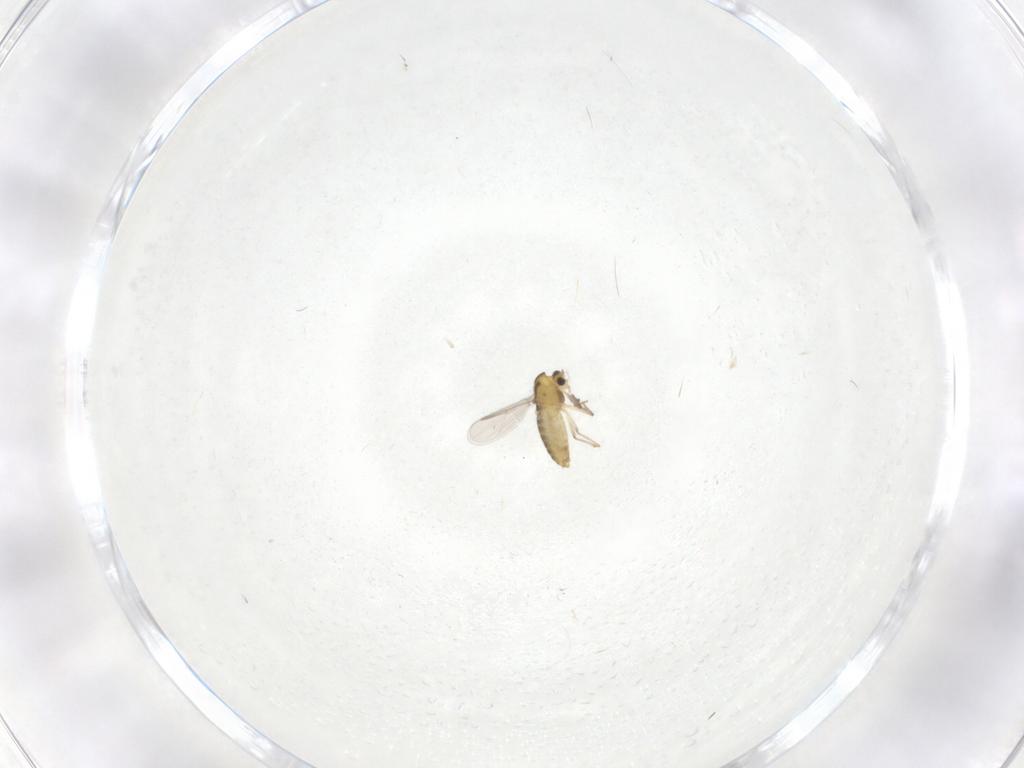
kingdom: Animalia
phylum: Arthropoda
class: Insecta
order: Diptera
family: Chironomidae
